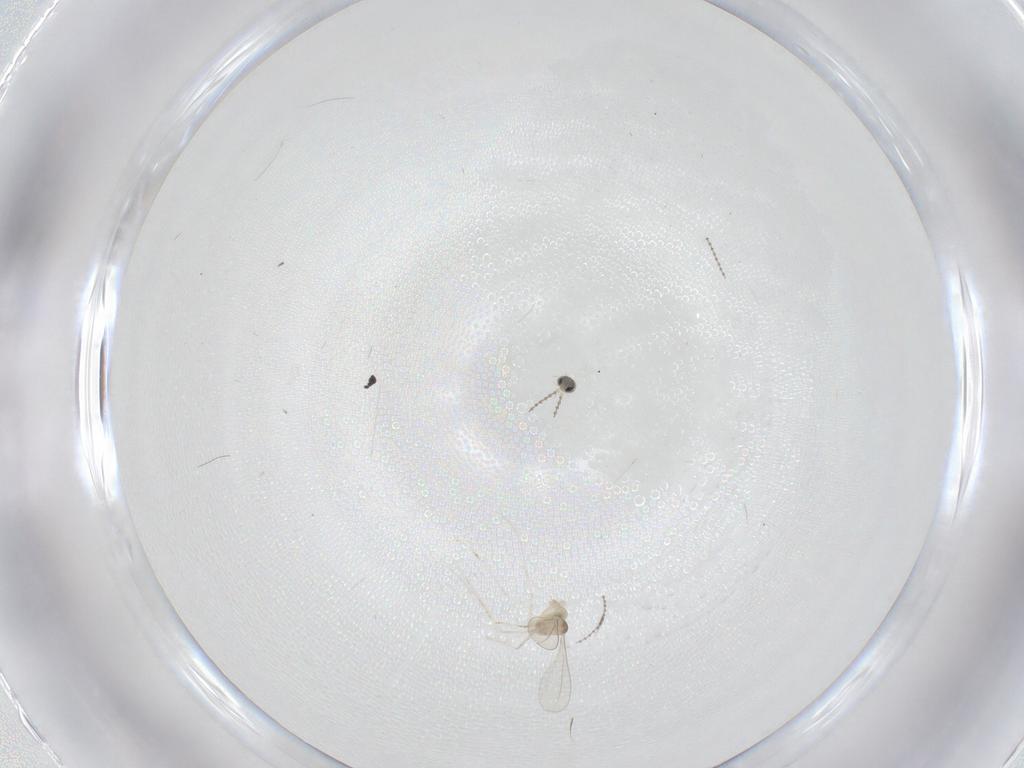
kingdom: Animalia
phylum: Arthropoda
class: Insecta
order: Diptera
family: Cecidomyiidae
